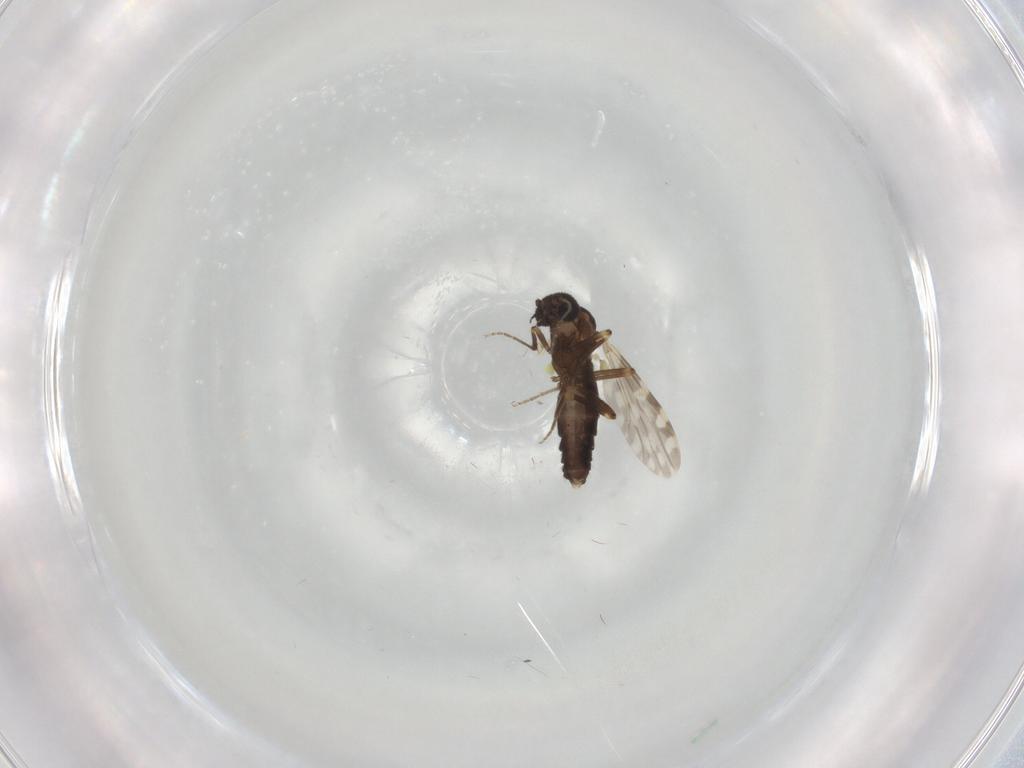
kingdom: Animalia
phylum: Arthropoda
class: Insecta
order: Diptera
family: Ceratopogonidae
